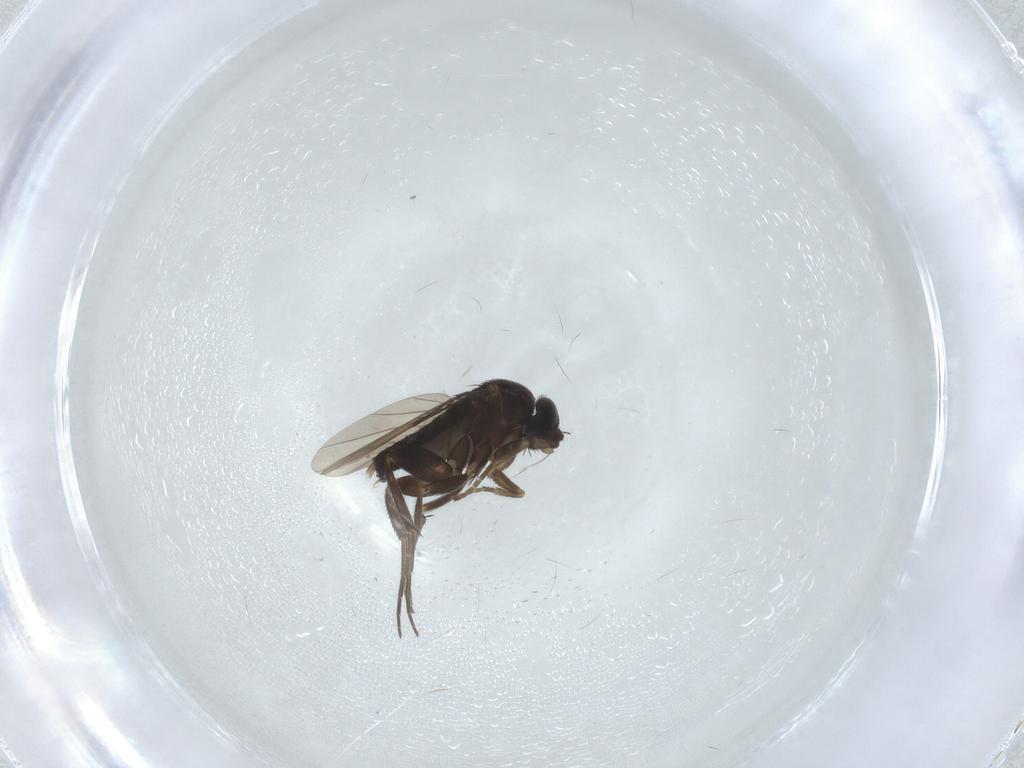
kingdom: Animalia
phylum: Arthropoda
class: Insecta
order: Diptera
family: Phoridae
